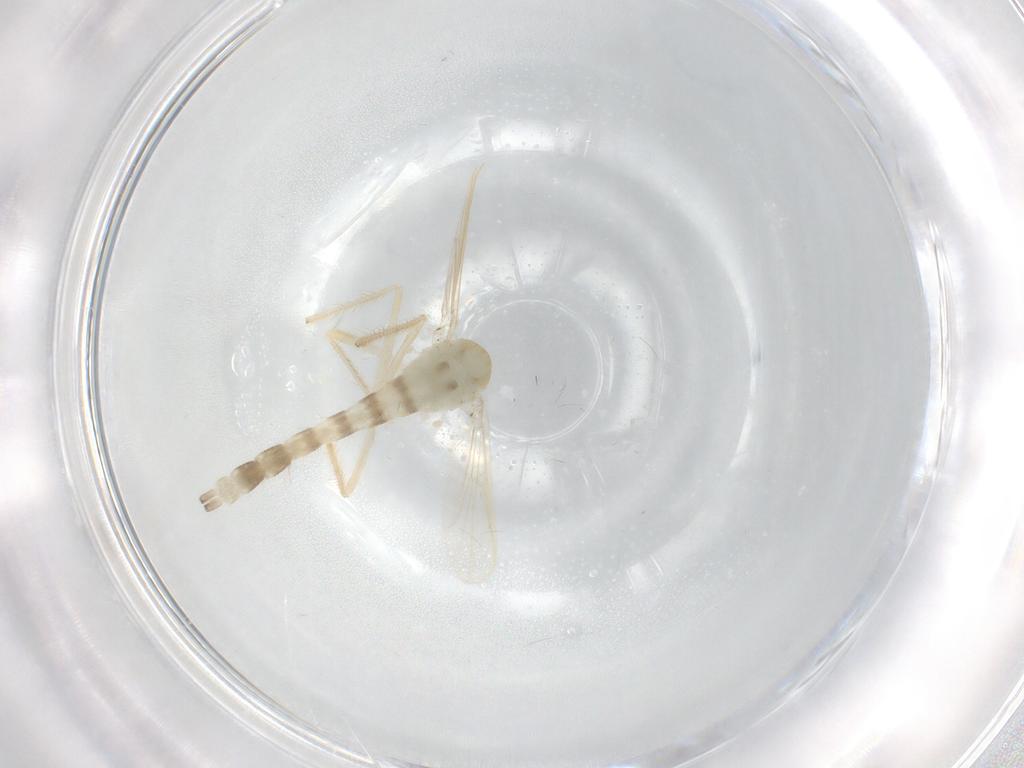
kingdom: Animalia
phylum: Arthropoda
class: Insecta
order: Diptera
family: Chironomidae
